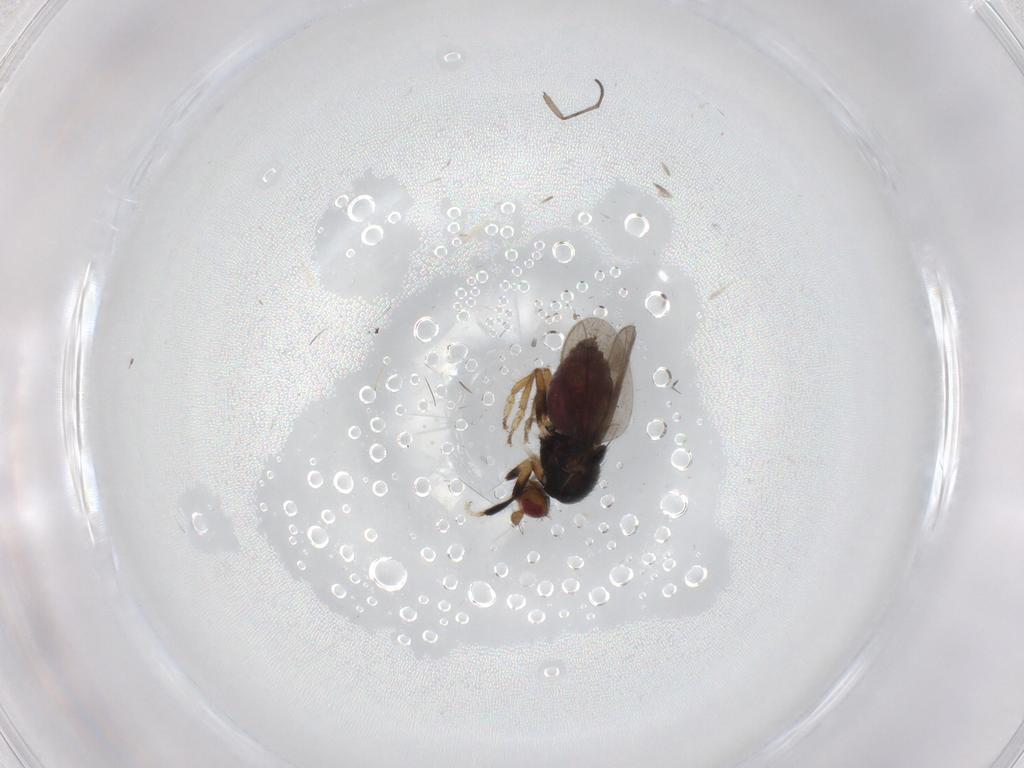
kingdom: Animalia
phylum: Arthropoda
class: Insecta
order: Diptera
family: Sphaeroceridae
